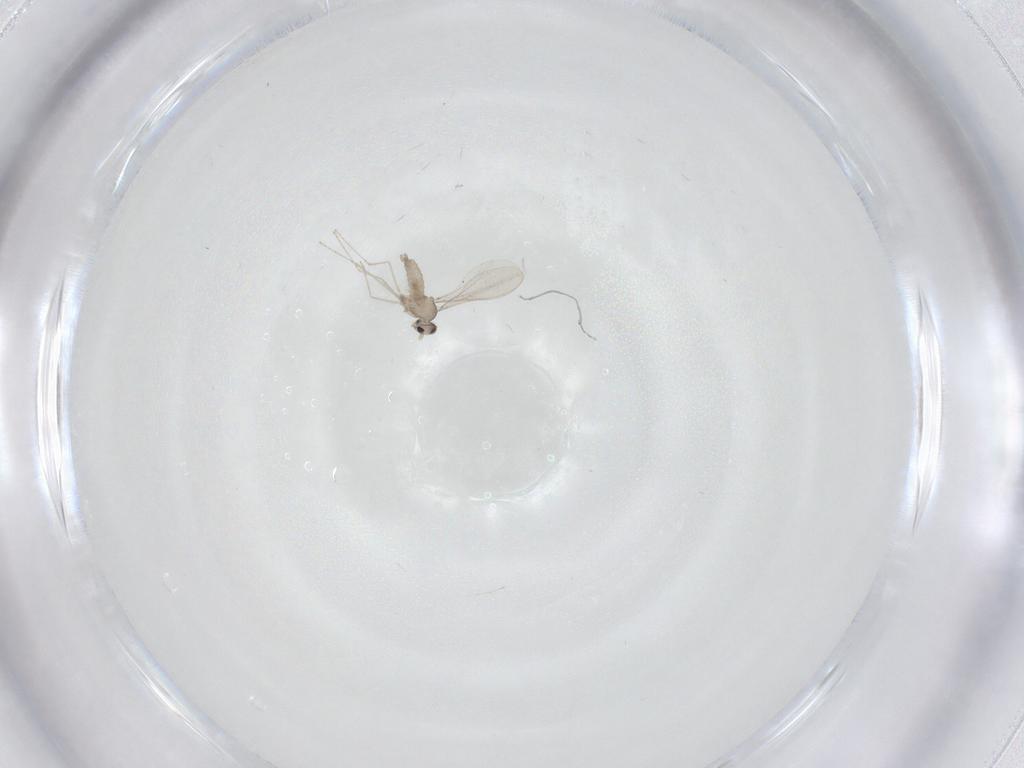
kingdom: Animalia
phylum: Arthropoda
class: Insecta
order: Diptera
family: Cecidomyiidae
